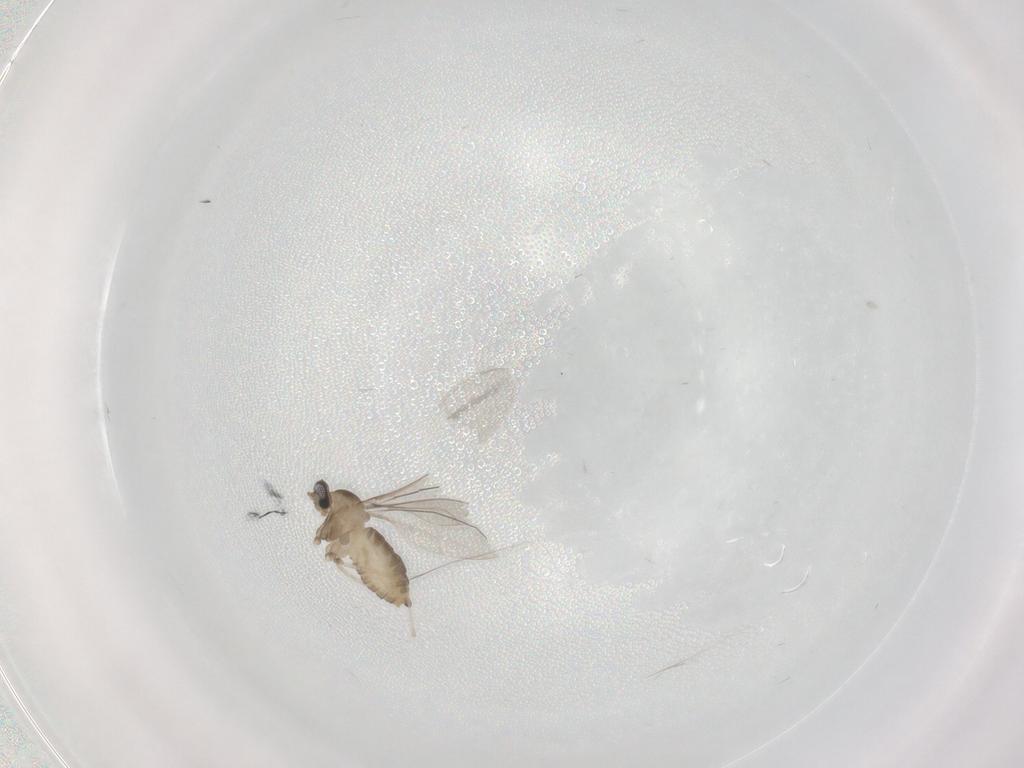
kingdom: Animalia
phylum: Arthropoda
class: Insecta
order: Diptera
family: Cecidomyiidae
